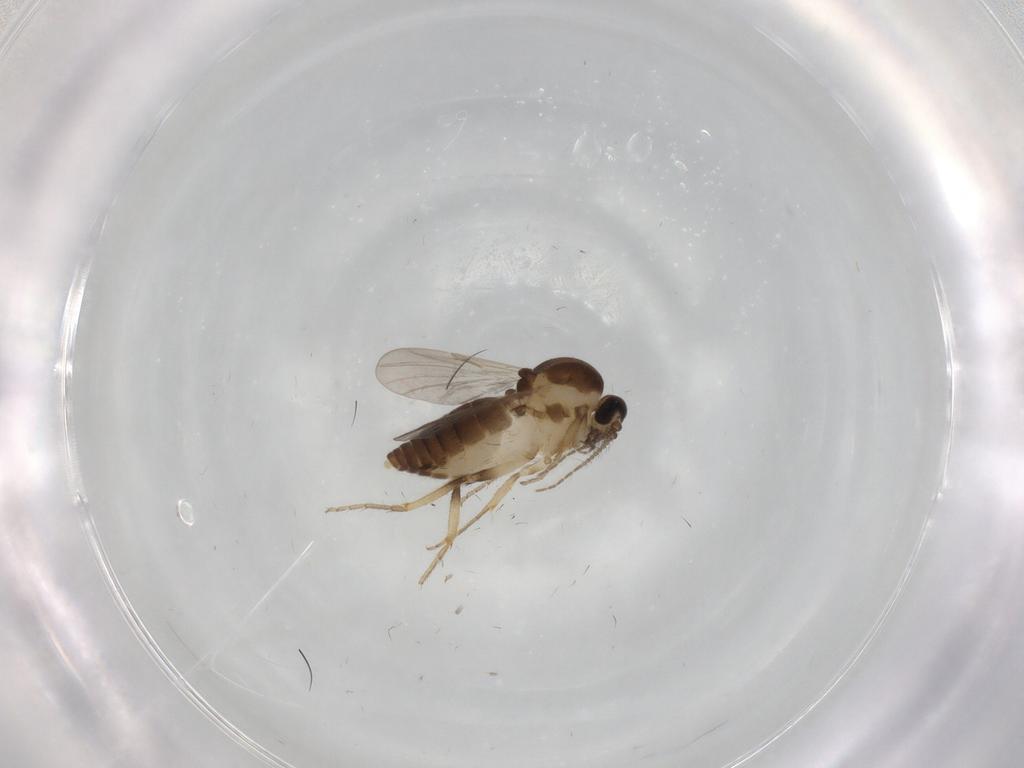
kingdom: Animalia
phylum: Arthropoda
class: Insecta
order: Diptera
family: Ceratopogonidae
